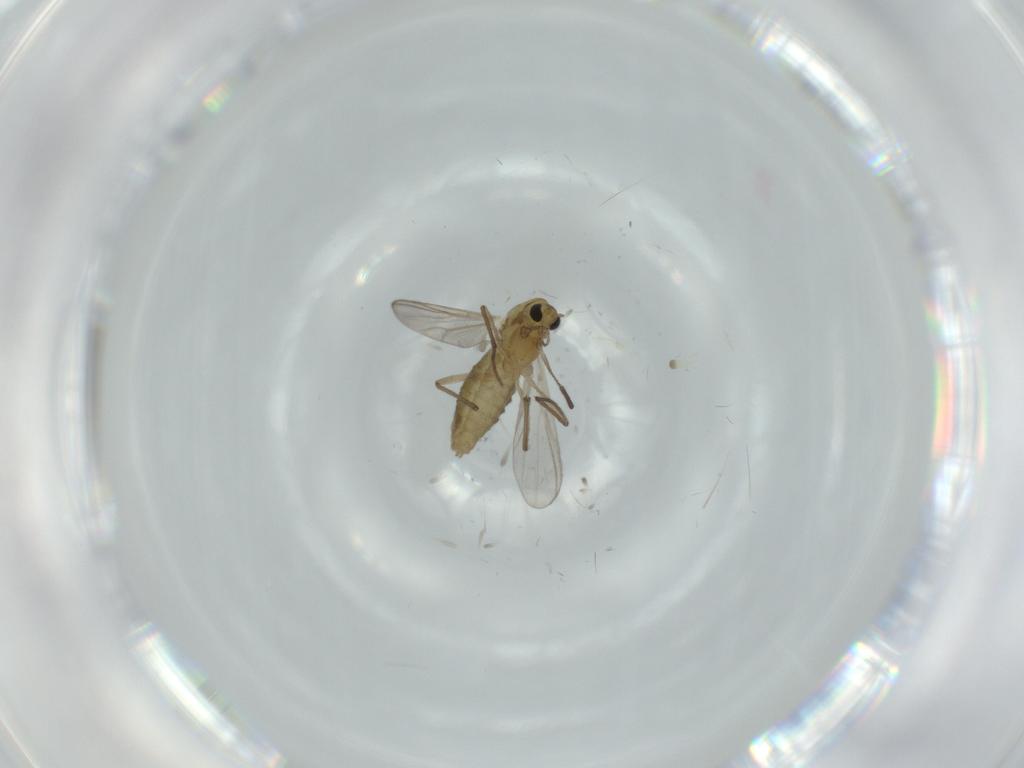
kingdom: Animalia
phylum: Arthropoda
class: Insecta
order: Diptera
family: Chironomidae
